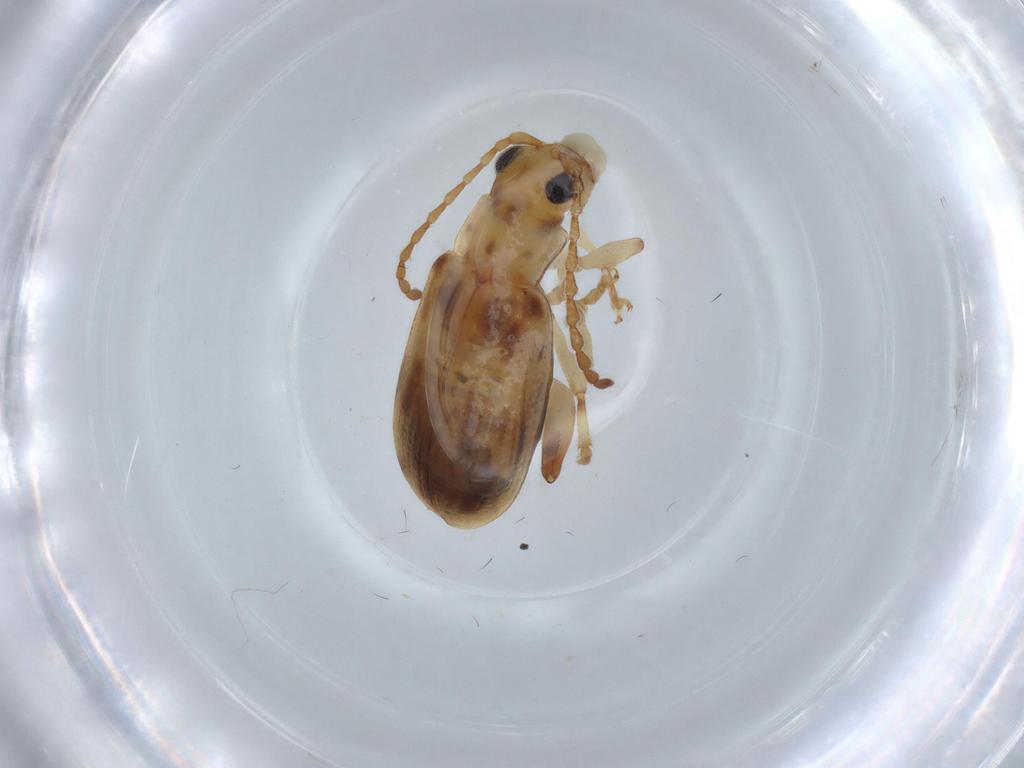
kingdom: Animalia
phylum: Arthropoda
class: Insecta
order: Coleoptera
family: Chrysomelidae
